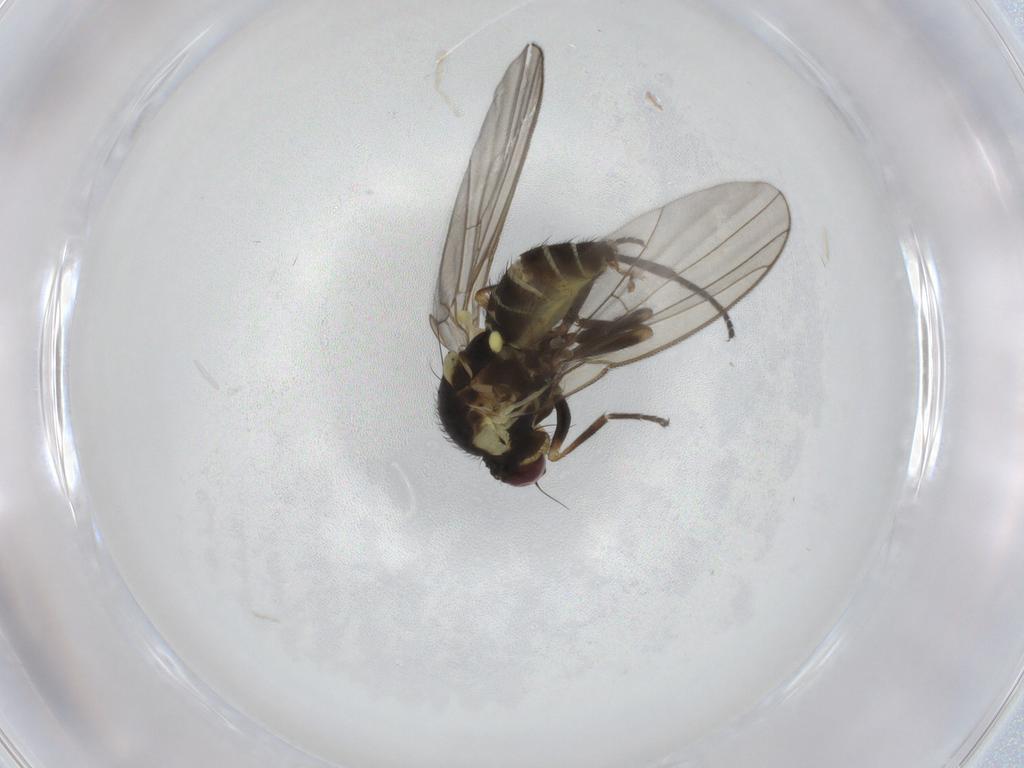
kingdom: Animalia
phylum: Arthropoda
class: Insecta
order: Diptera
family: Agromyzidae
